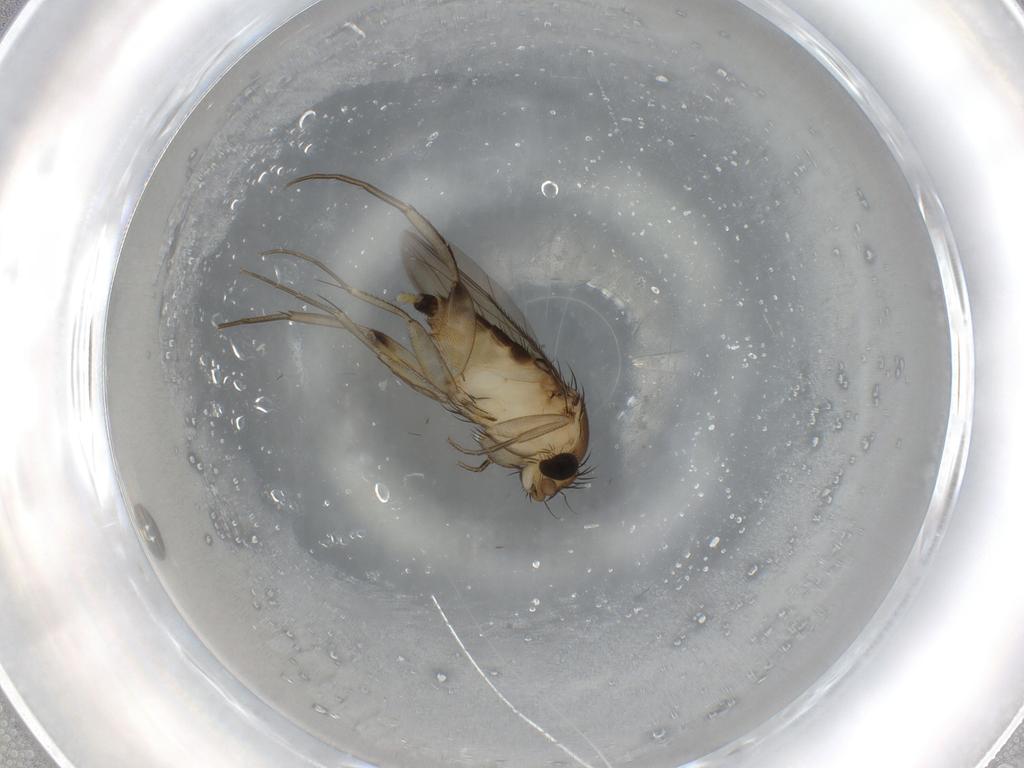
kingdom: Animalia
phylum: Arthropoda
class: Insecta
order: Diptera
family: Phoridae
